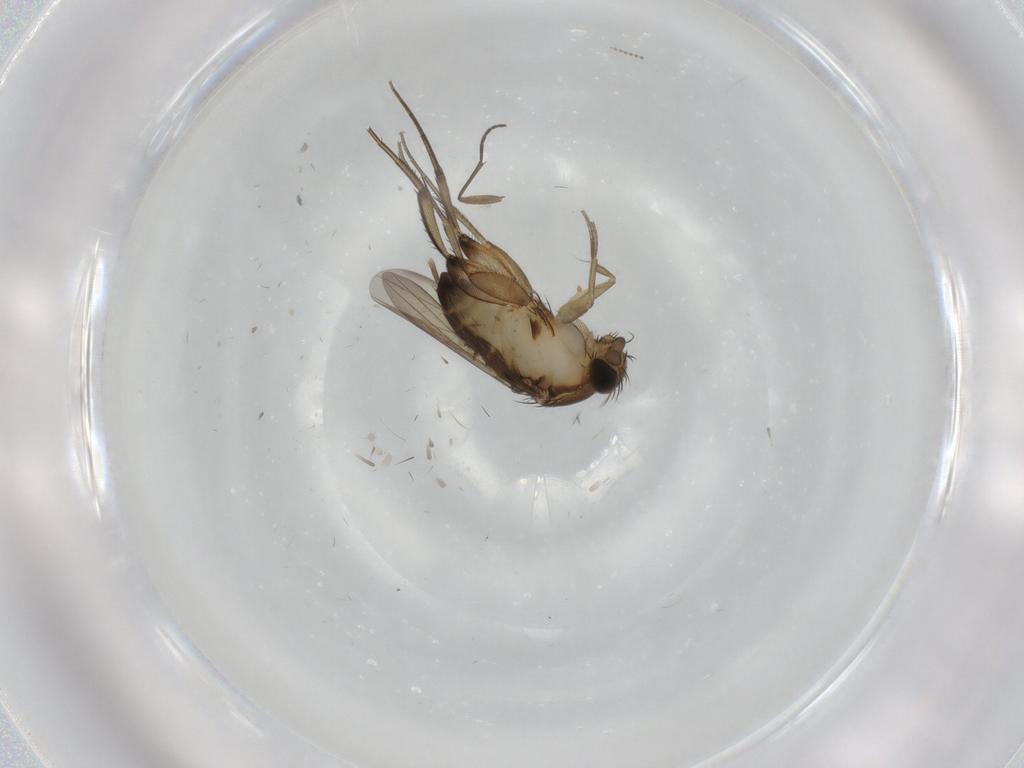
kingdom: Animalia
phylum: Arthropoda
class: Insecta
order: Diptera
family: Phoridae
